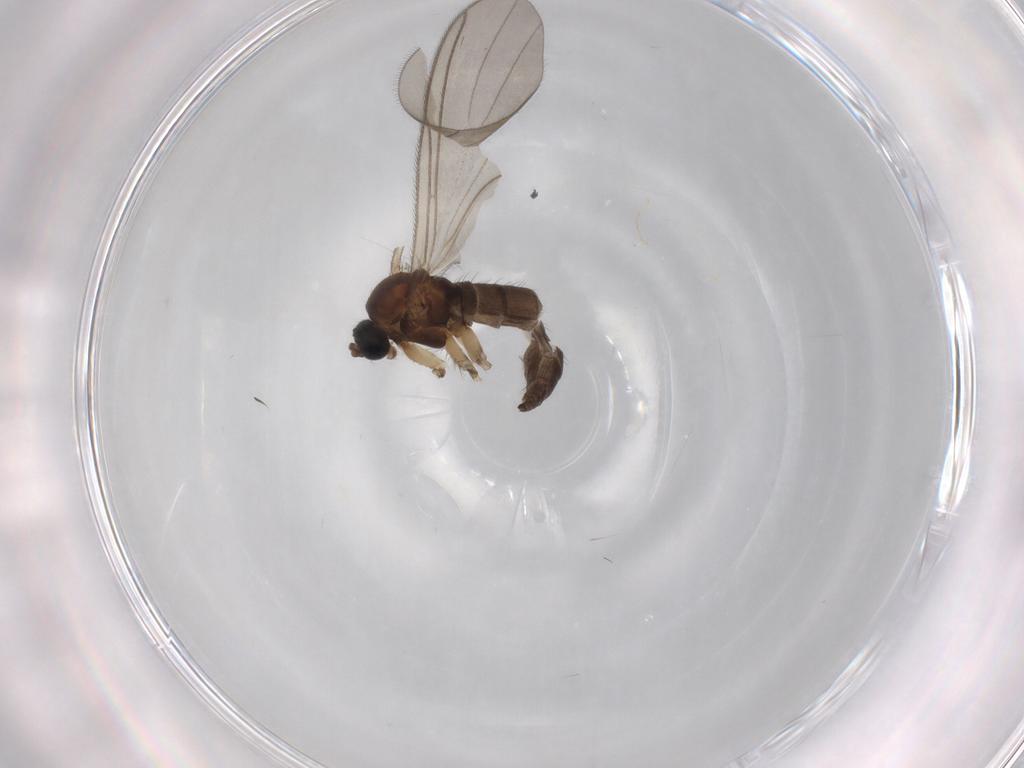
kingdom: Animalia
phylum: Arthropoda
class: Insecta
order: Diptera
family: Sciaridae
